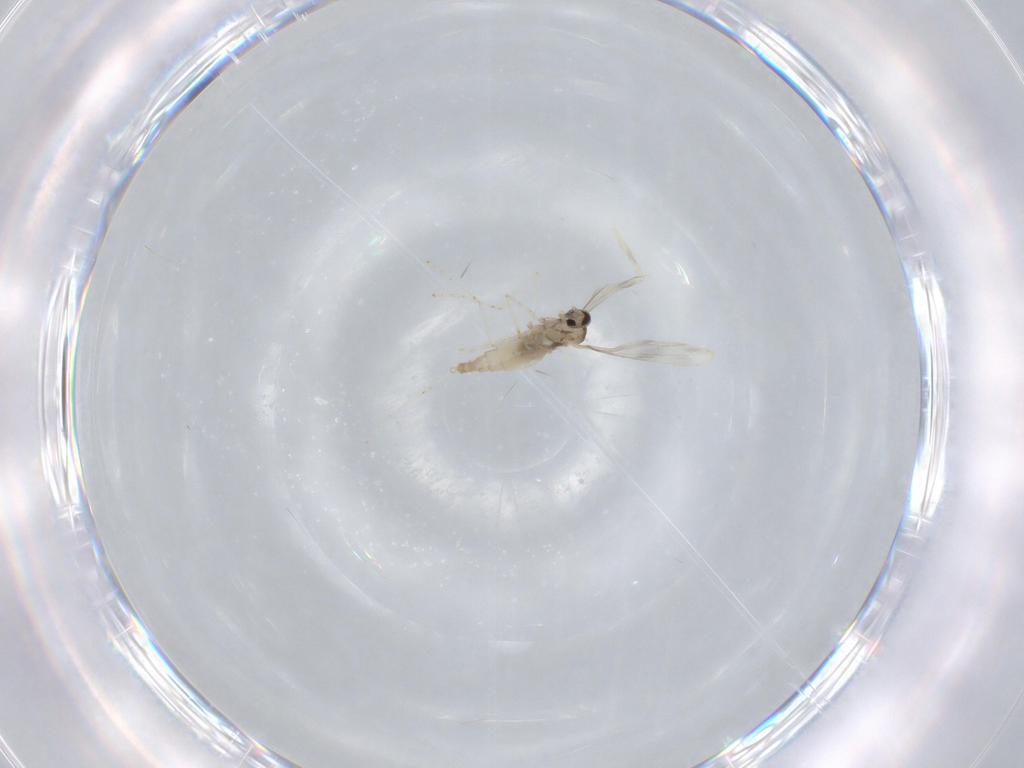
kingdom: Animalia
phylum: Arthropoda
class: Insecta
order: Diptera
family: Cecidomyiidae
